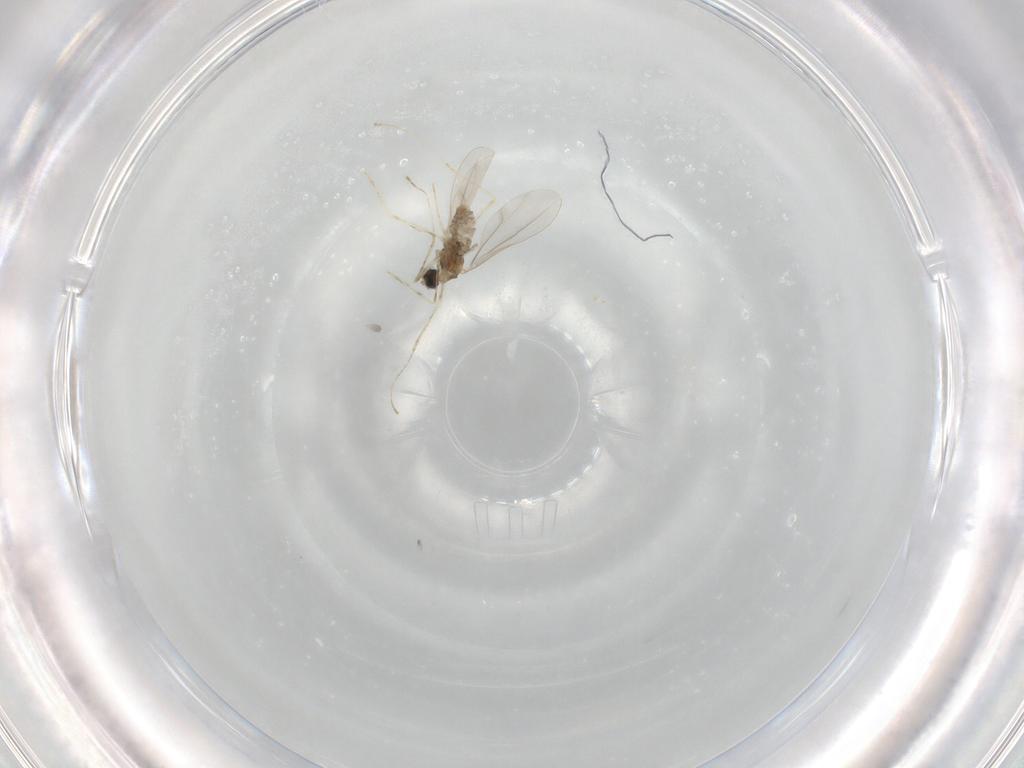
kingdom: Animalia
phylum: Arthropoda
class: Insecta
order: Diptera
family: Cecidomyiidae
